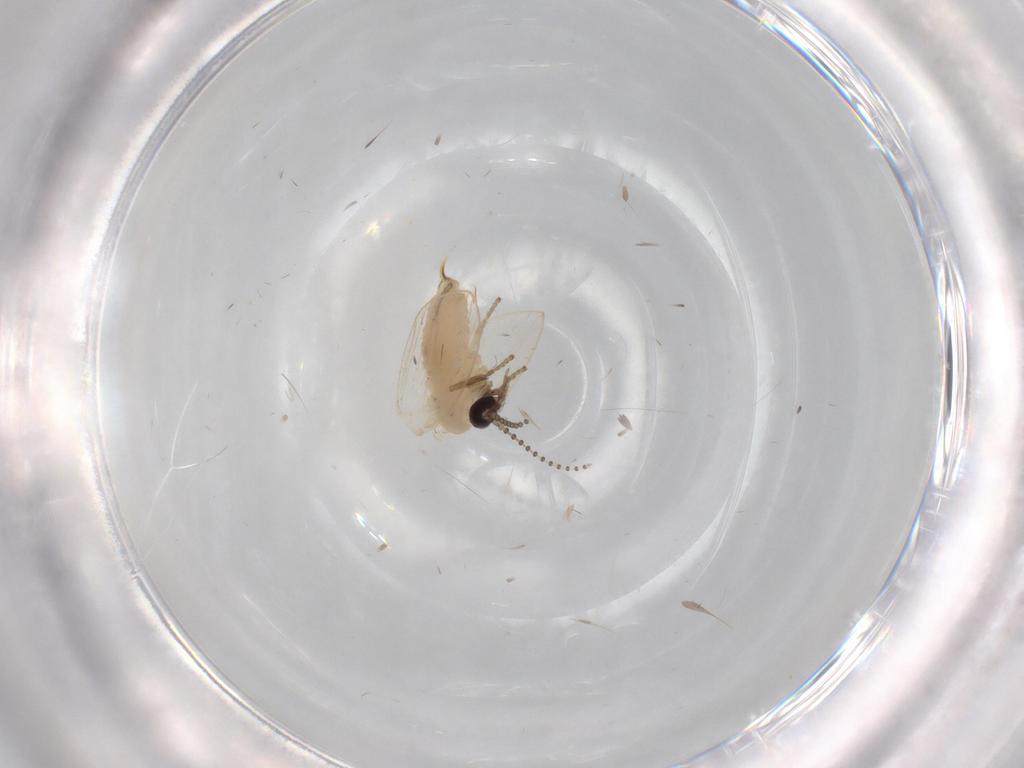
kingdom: Animalia
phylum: Arthropoda
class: Insecta
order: Diptera
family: Psychodidae
